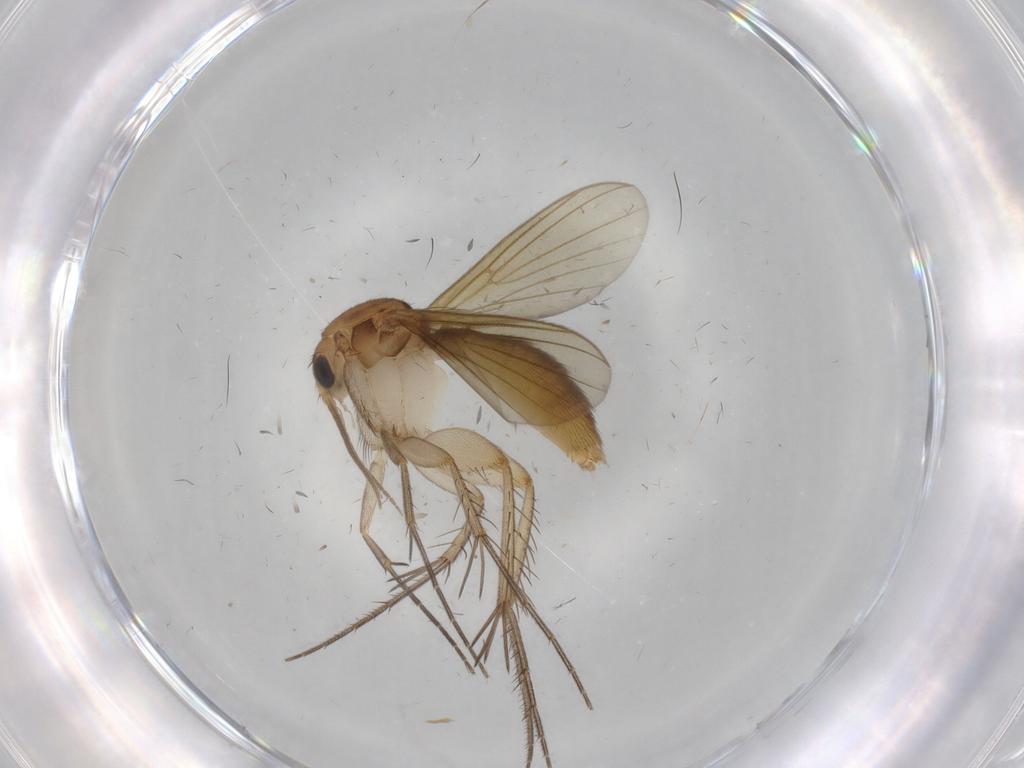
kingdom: Animalia
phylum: Arthropoda
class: Insecta
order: Diptera
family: Mycetophilidae
